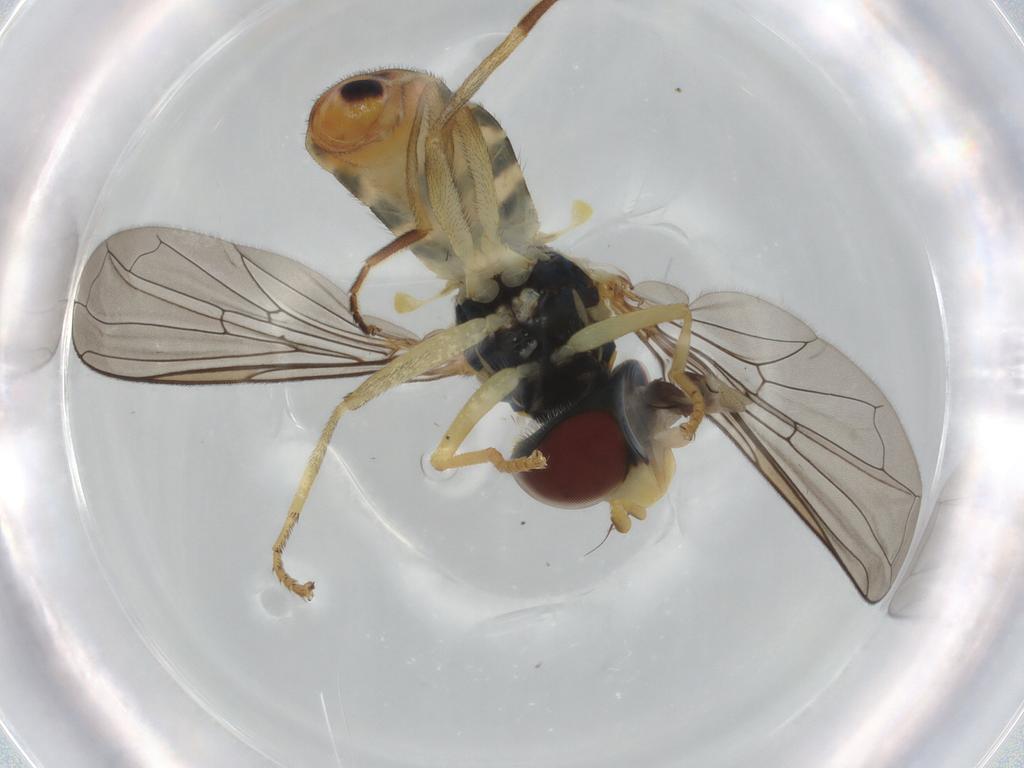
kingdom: Animalia
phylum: Arthropoda
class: Insecta
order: Diptera
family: Syrphidae
